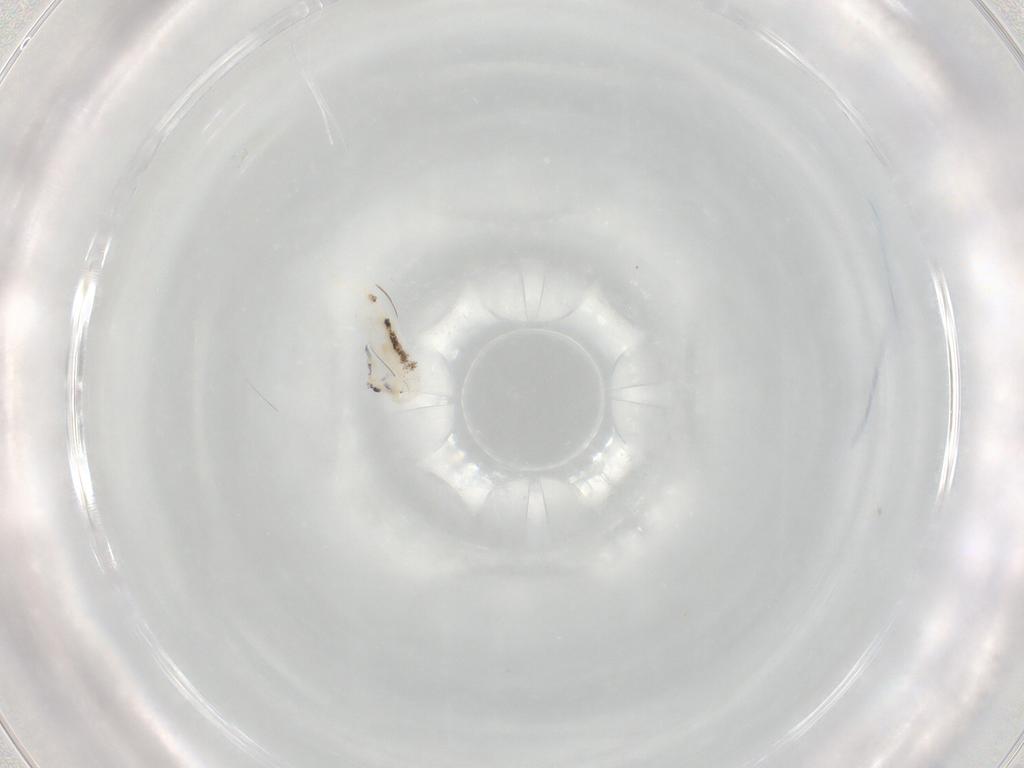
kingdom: Animalia
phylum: Arthropoda
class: Collembola
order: Entomobryomorpha
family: Entomobryidae
